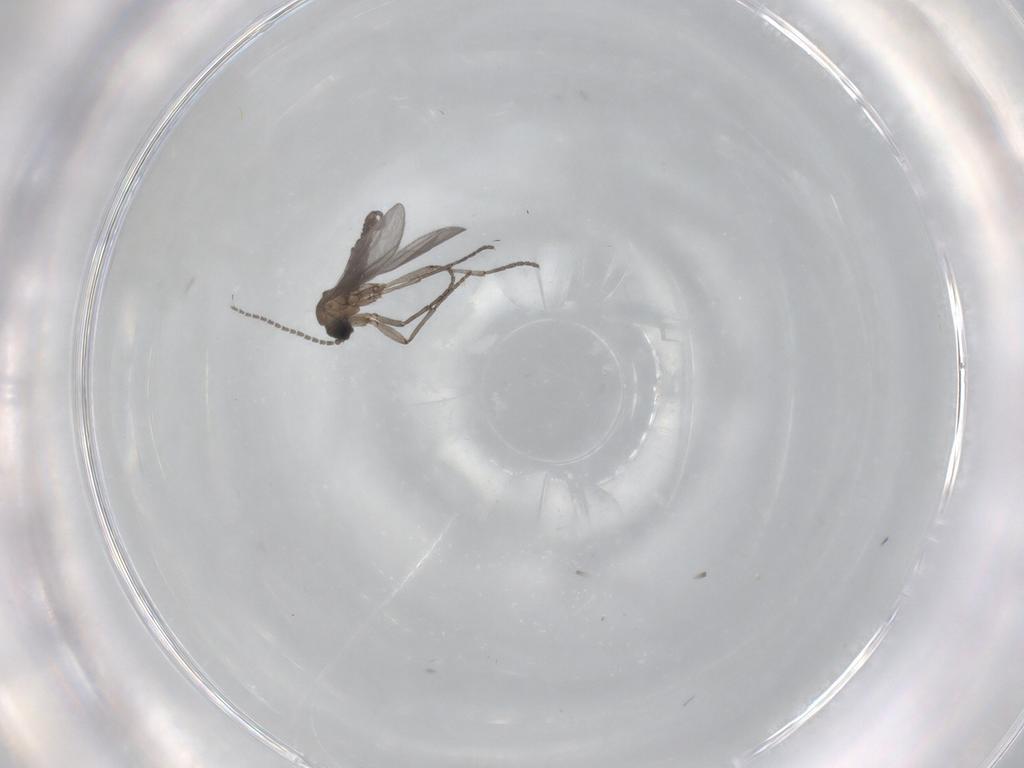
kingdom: Animalia
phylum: Arthropoda
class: Insecta
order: Diptera
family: Sciaridae
